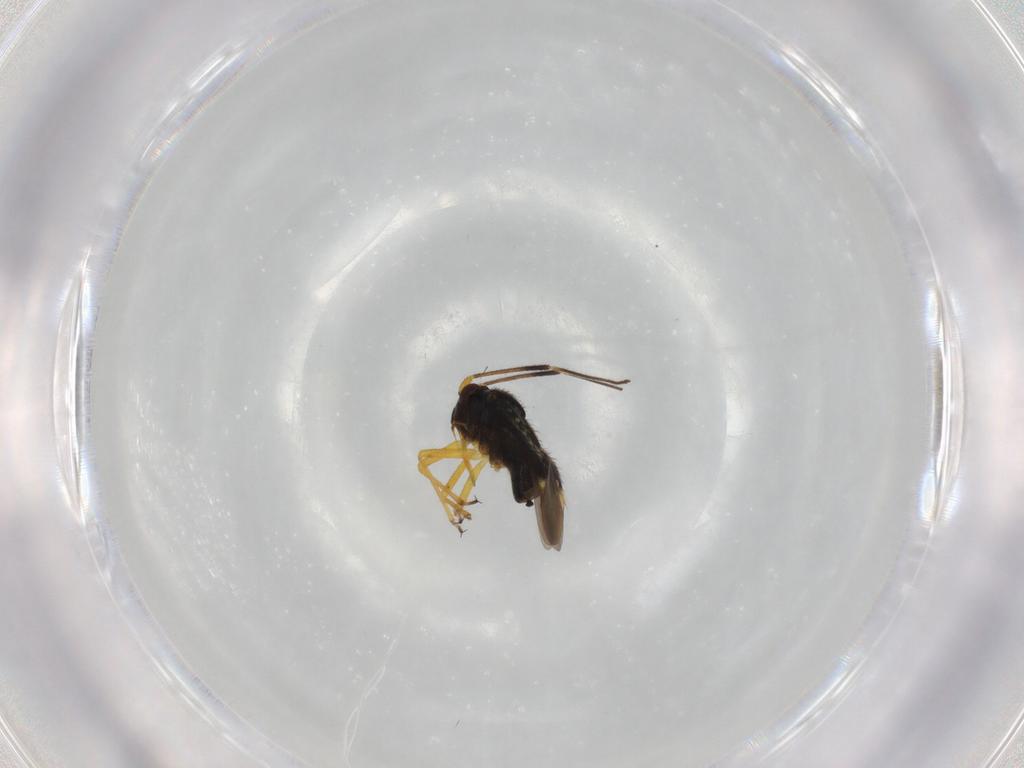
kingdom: Animalia
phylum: Arthropoda
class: Insecta
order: Hemiptera
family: Miridae
